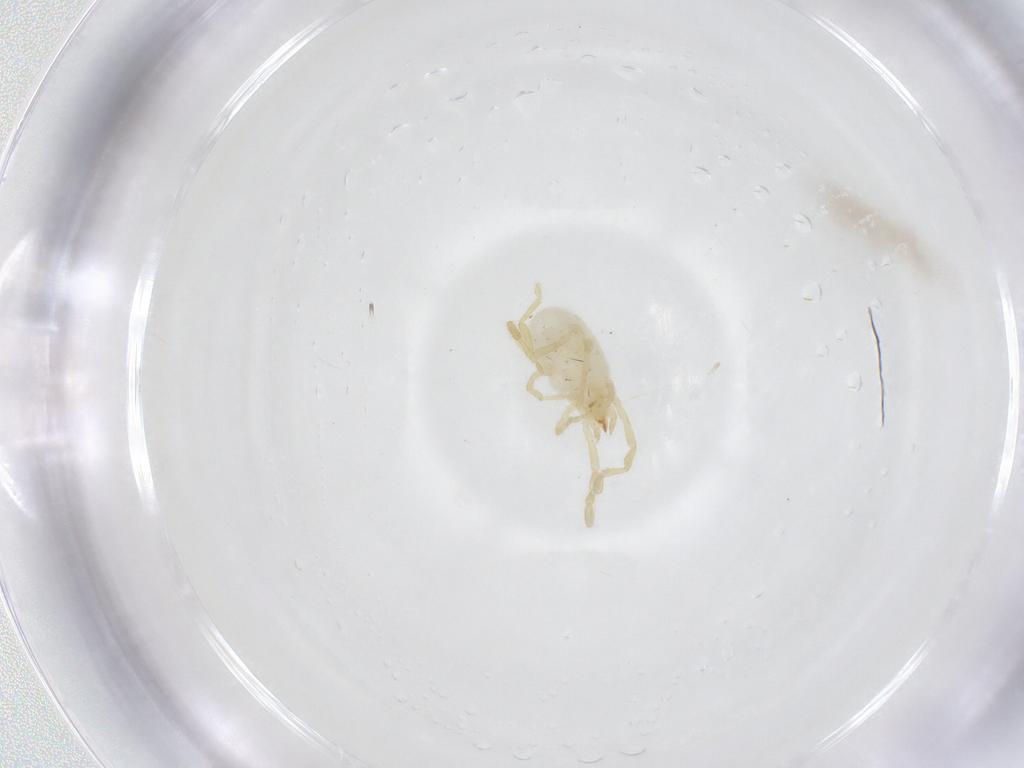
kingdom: Animalia
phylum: Arthropoda
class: Arachnida
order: Trombidiformes
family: Erythraeidae
